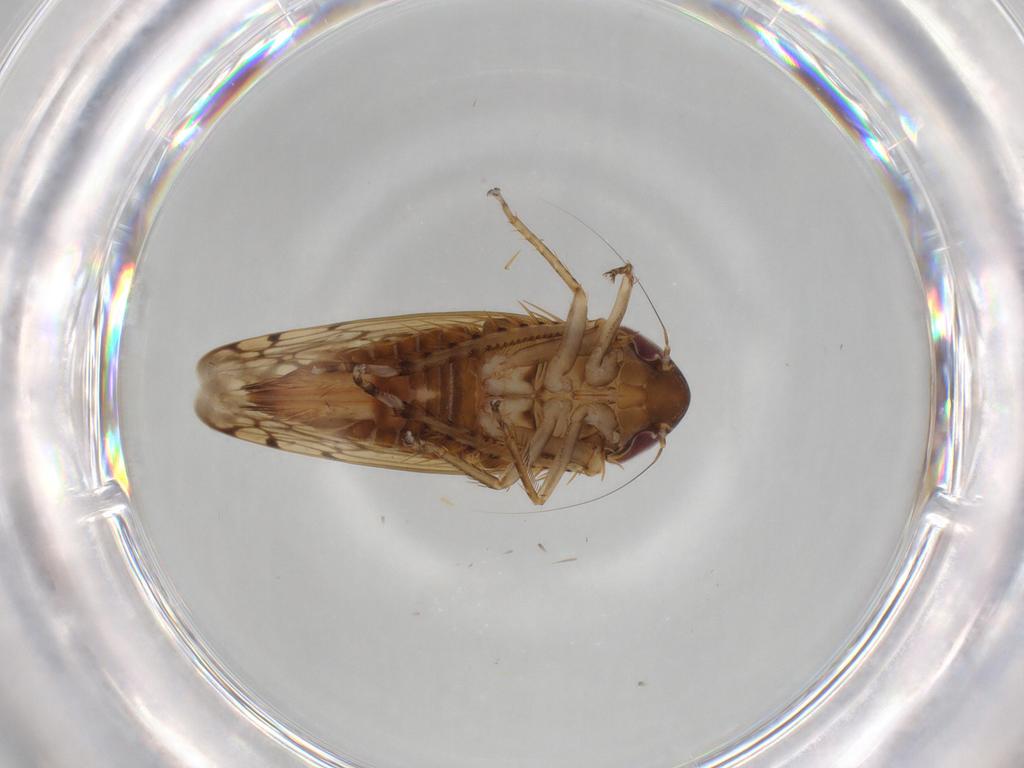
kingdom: Animalia
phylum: Arthropoda
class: Insecta
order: Hemiptera
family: Cicadellidae
